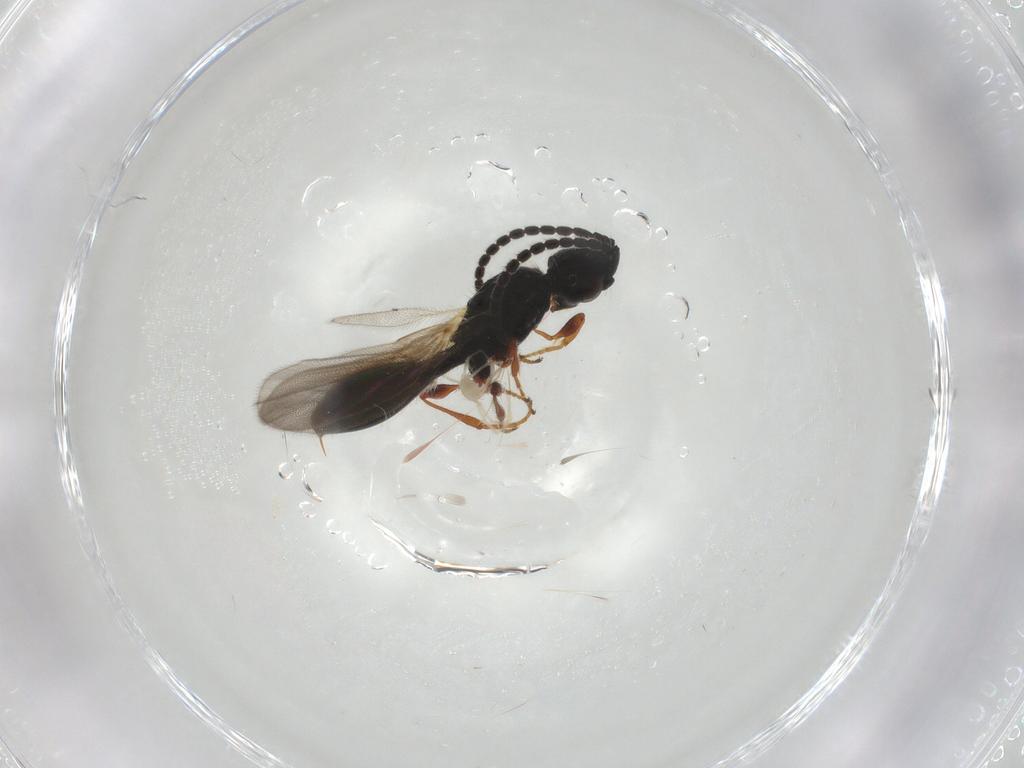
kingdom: Animalia
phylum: Arthropoda
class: Insecta
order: Hymenoptera
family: Diapriidae
